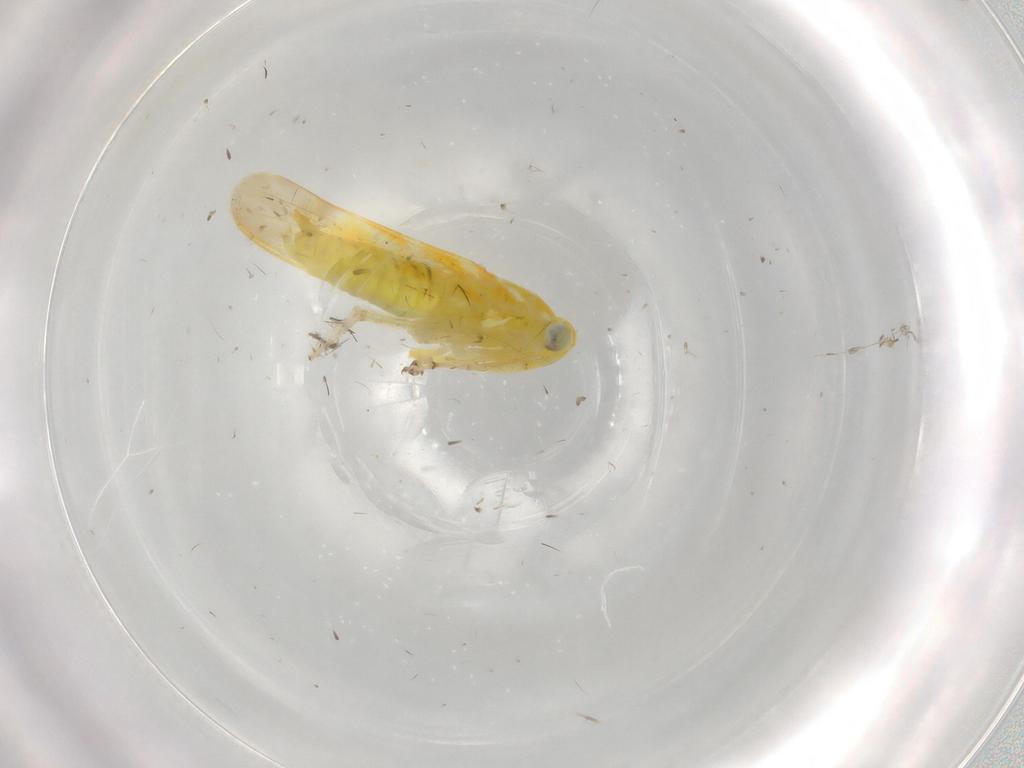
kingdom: Animalia
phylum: Arthropoda
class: Insecta
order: Hemiptera
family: Cicadellidae
